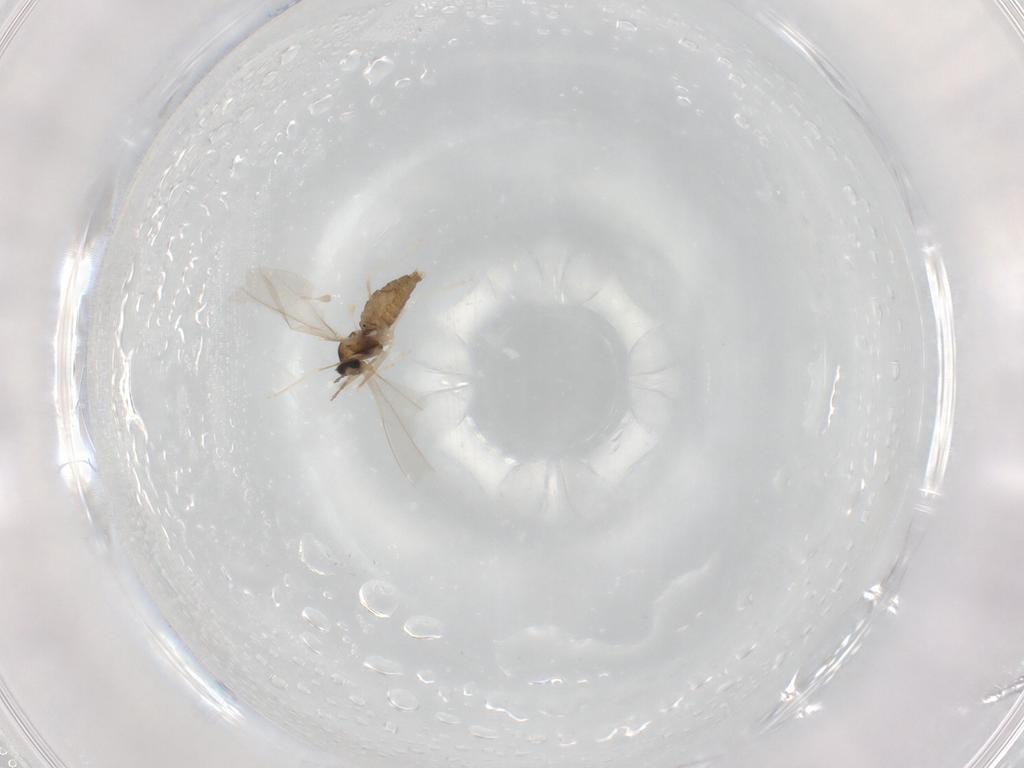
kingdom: Animalia
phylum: Arthropoda
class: Insecta
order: Diptera
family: Cecidomyiidae
